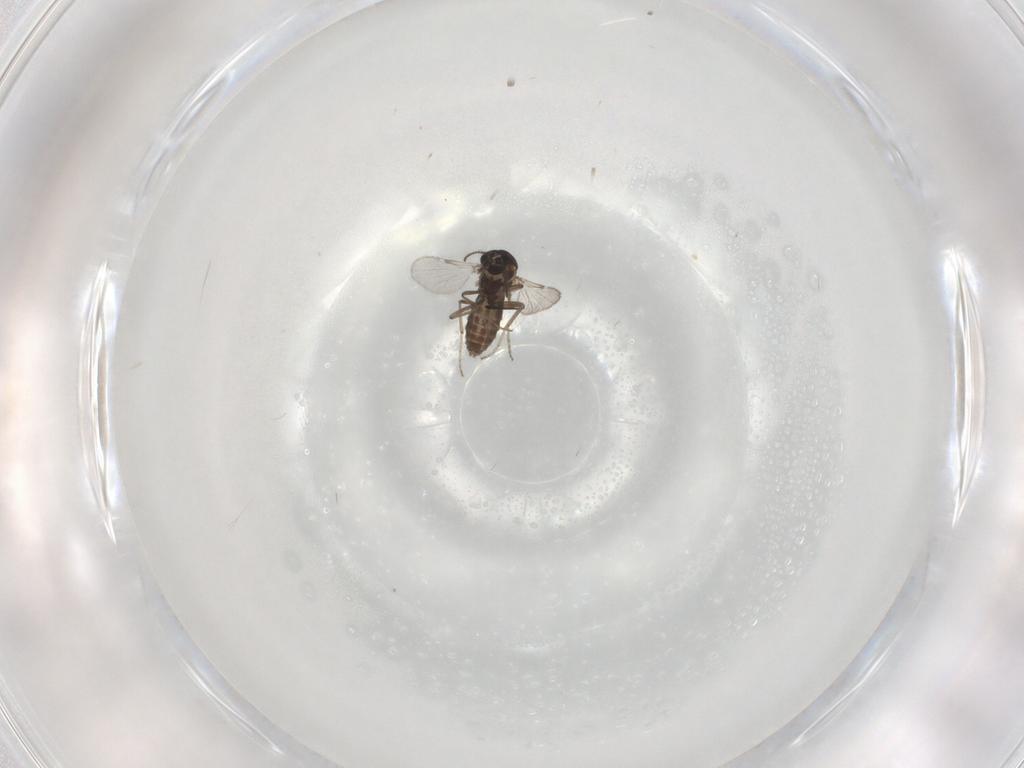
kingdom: Animalia
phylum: Arthropoda
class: Insecta
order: Diptera
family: Ceratopogonidae
